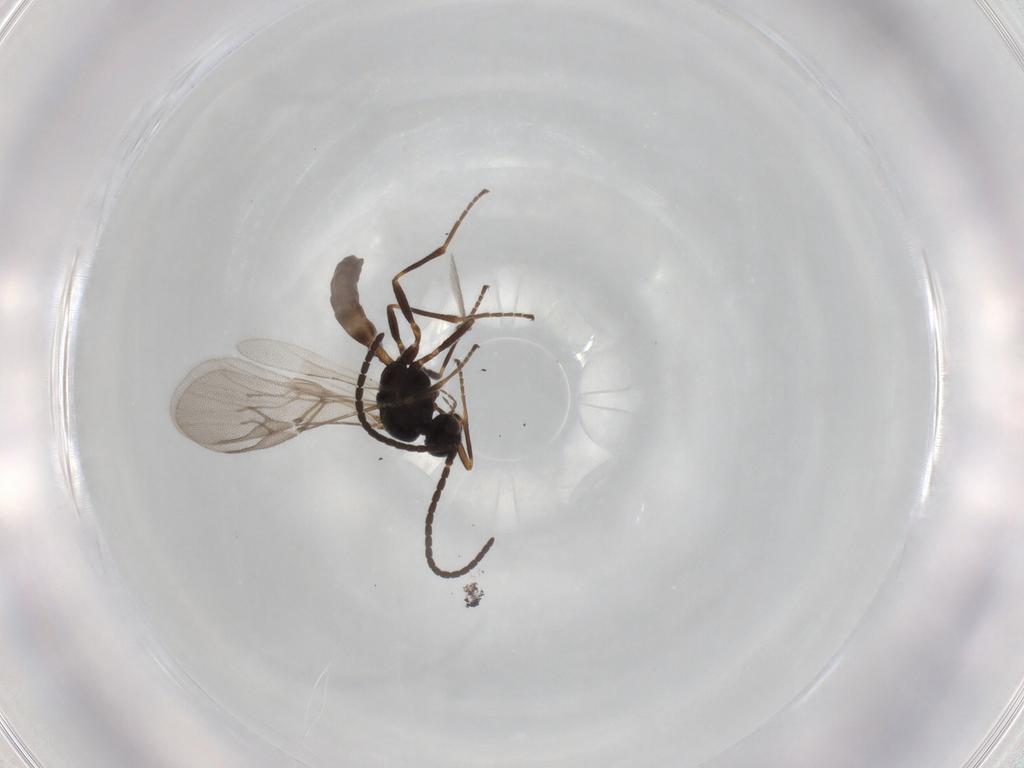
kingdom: Animalia
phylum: Arthropoda
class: Insecta
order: Hymenoptera
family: Braconidae
